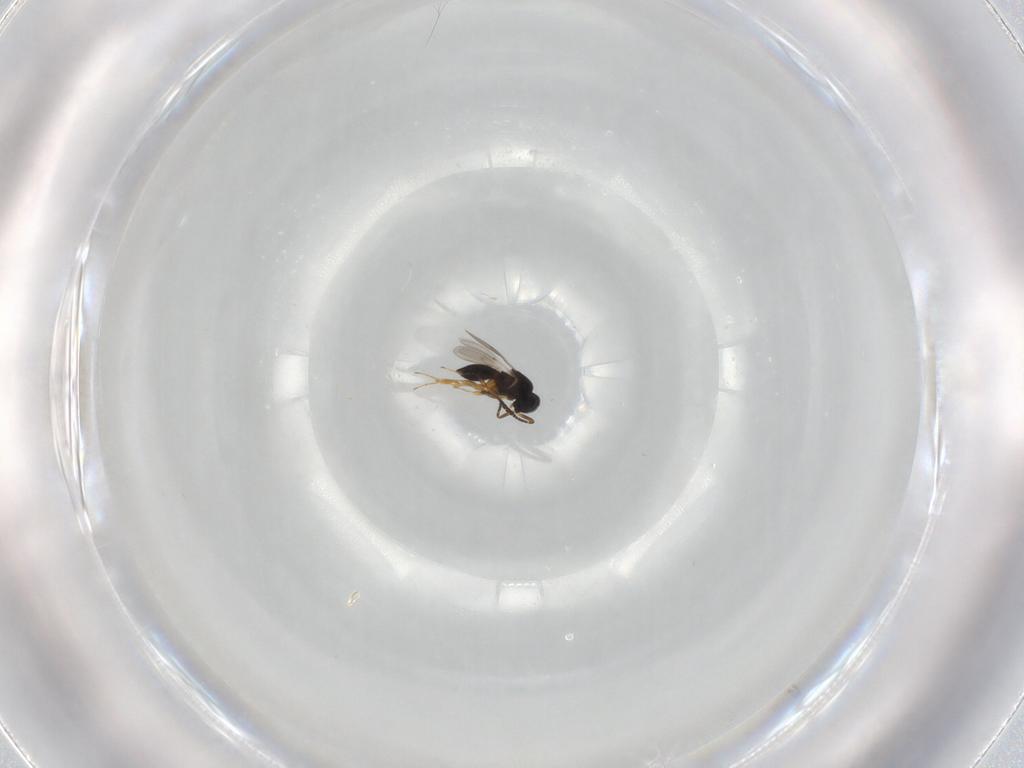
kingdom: Animalia
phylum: Arthropoda
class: Insecta
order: Hymenoptera
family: Scelionidae
